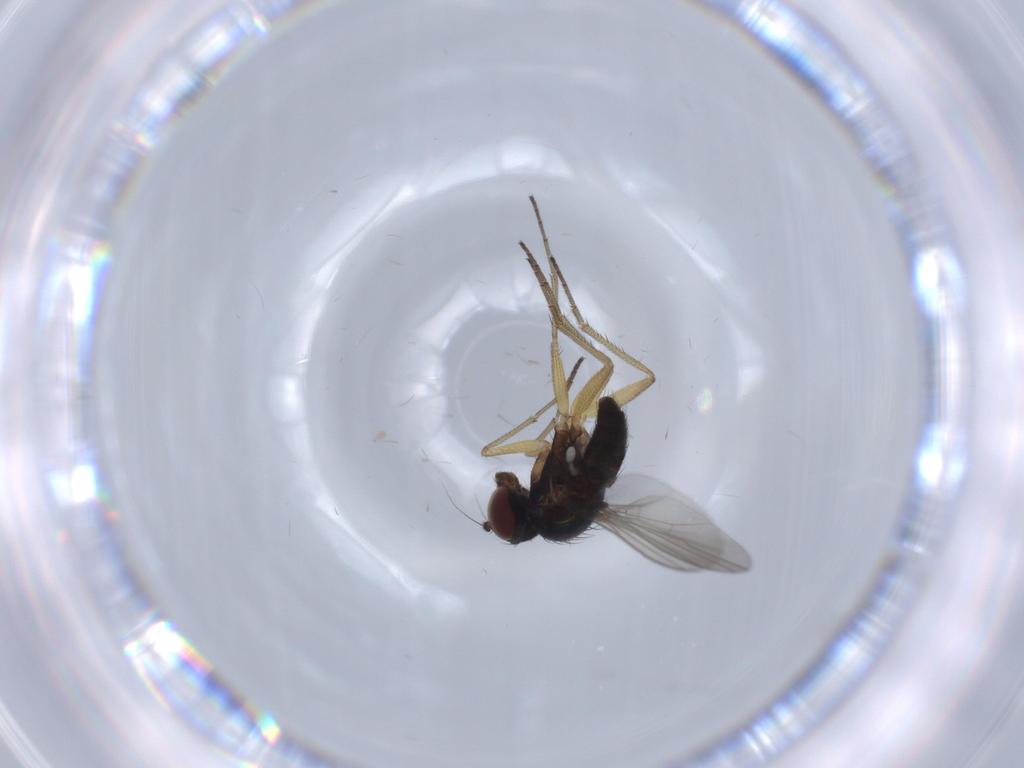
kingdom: Animalia
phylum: Arthropoda
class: Insecta
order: Diptera
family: Dolichopodidae
